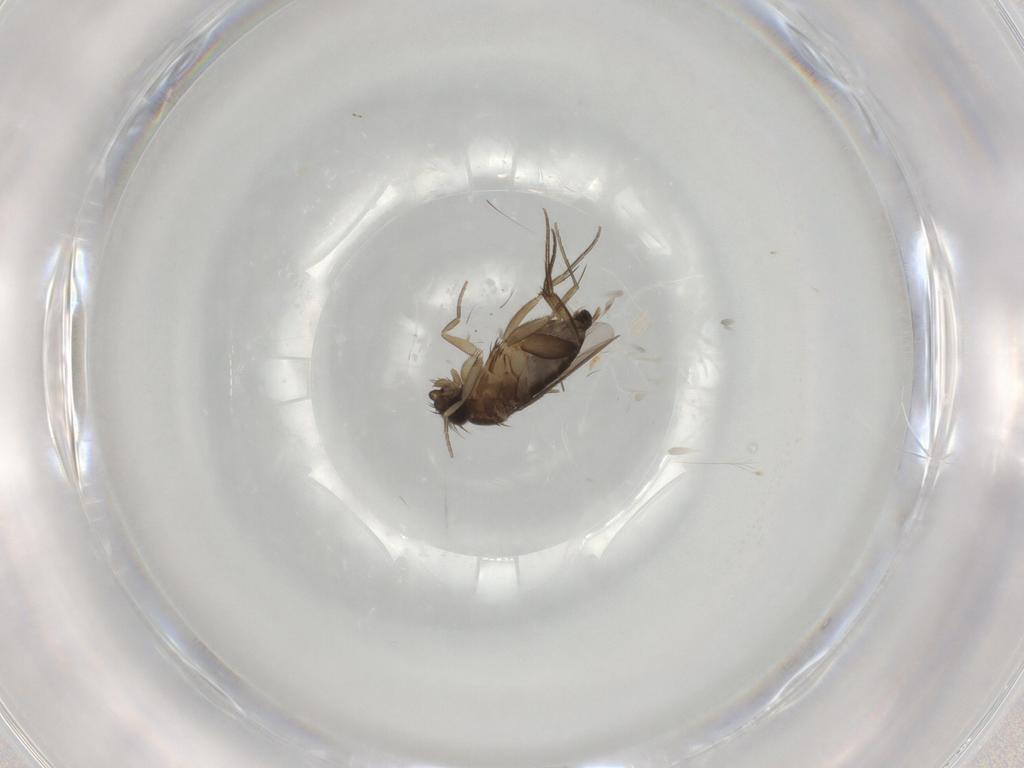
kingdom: Animalia
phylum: Arthropoda
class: Insecta
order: Diptera
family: Phoridae
